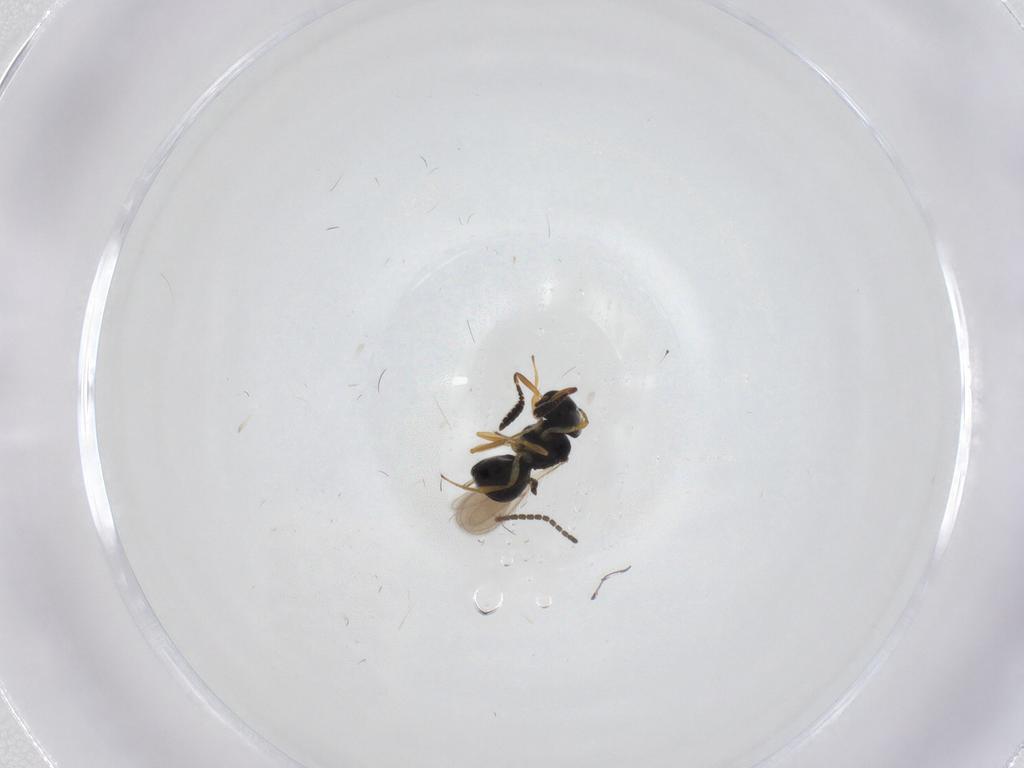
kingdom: Animalia
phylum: Arthropoda
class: Insecta
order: Hymenoptera
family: Scelionidae
